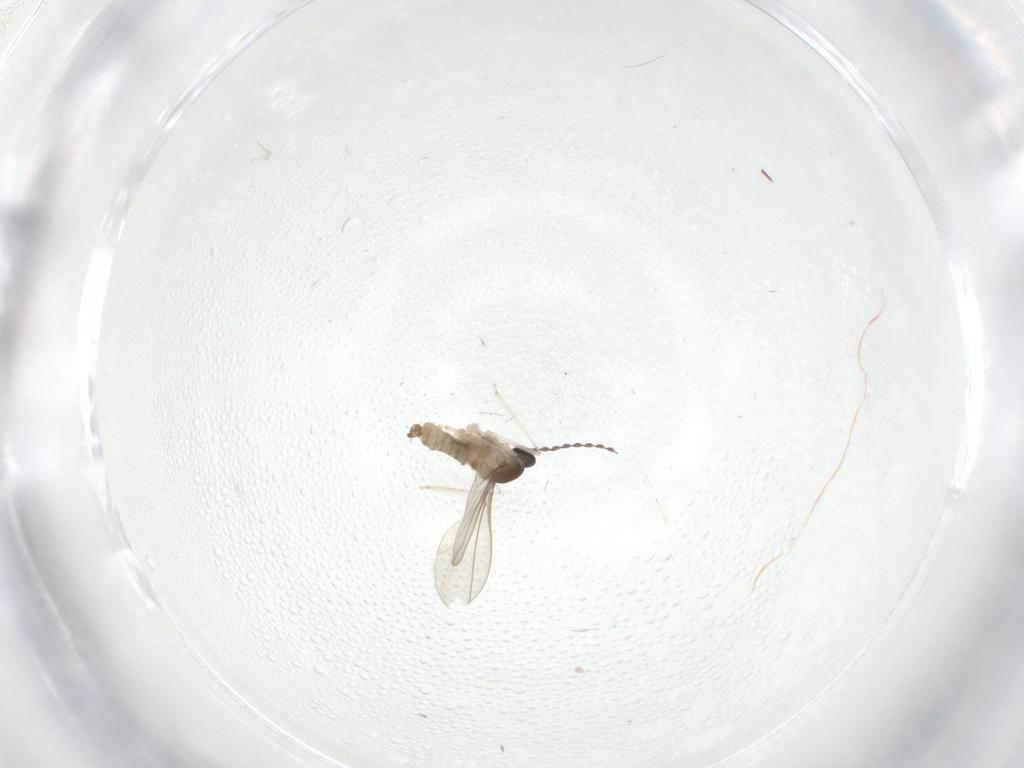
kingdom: Animalia
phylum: Arthropoda
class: Insecta
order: Diptera
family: Cecidomyiidae
